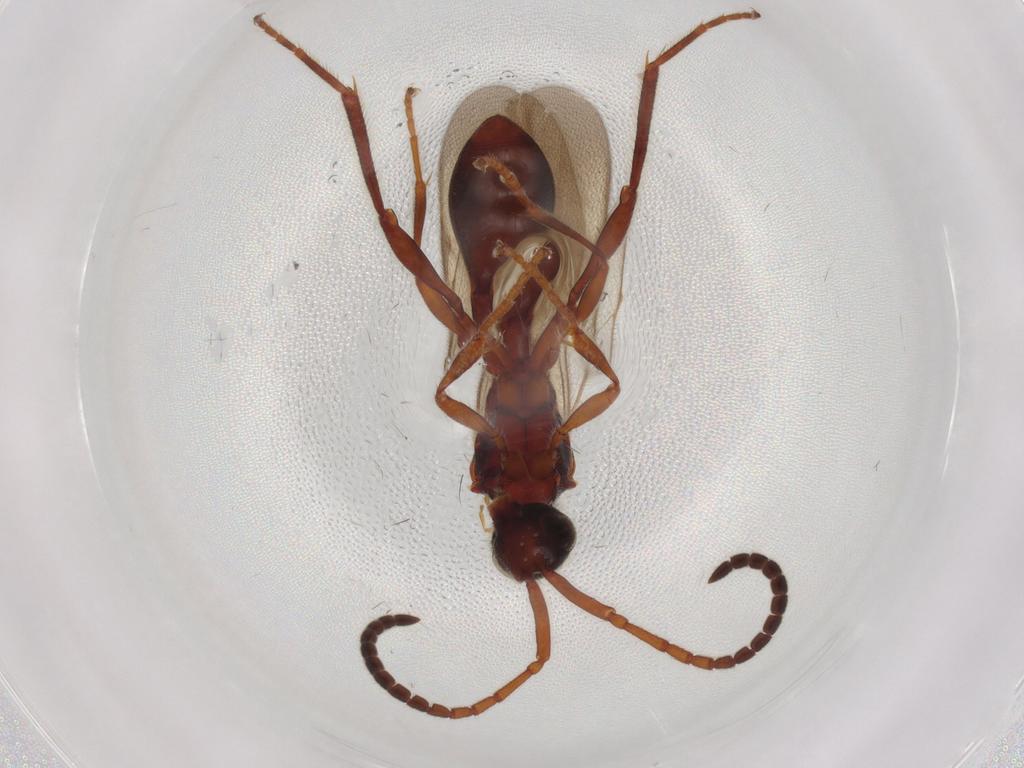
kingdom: Animalia
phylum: Arthropoda
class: Insecta
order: Hymenoptera
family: Diapriidae
